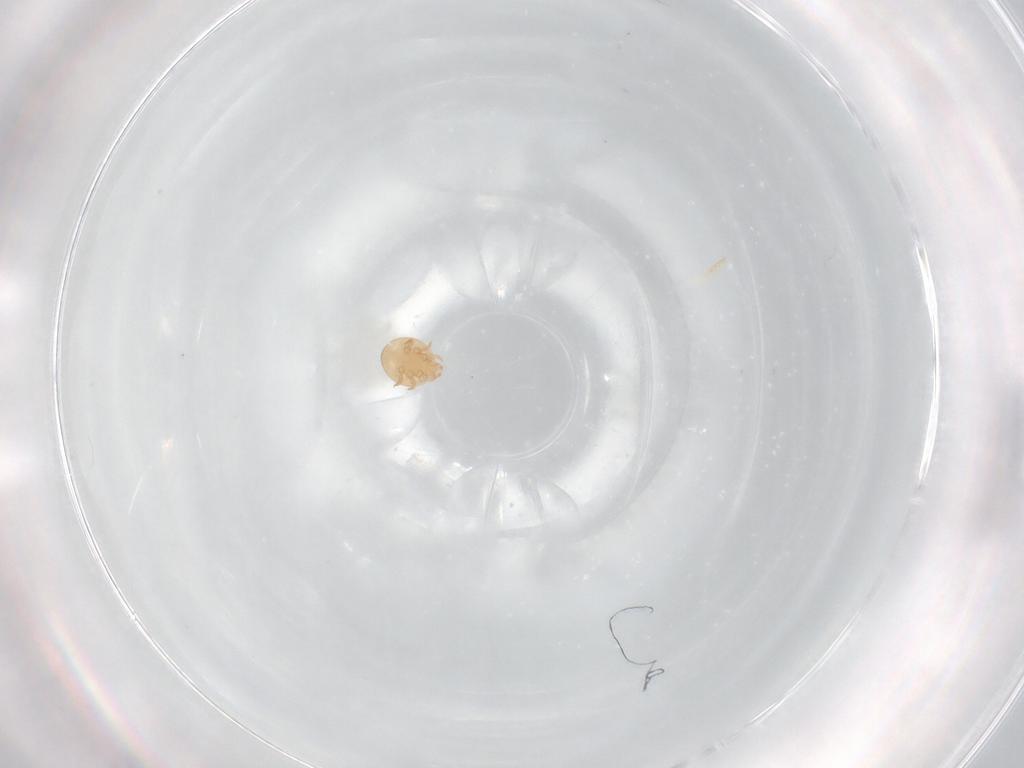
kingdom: Animalia
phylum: Arthropoda
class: Arachnida
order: Mesostigmata
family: Trematuridae
